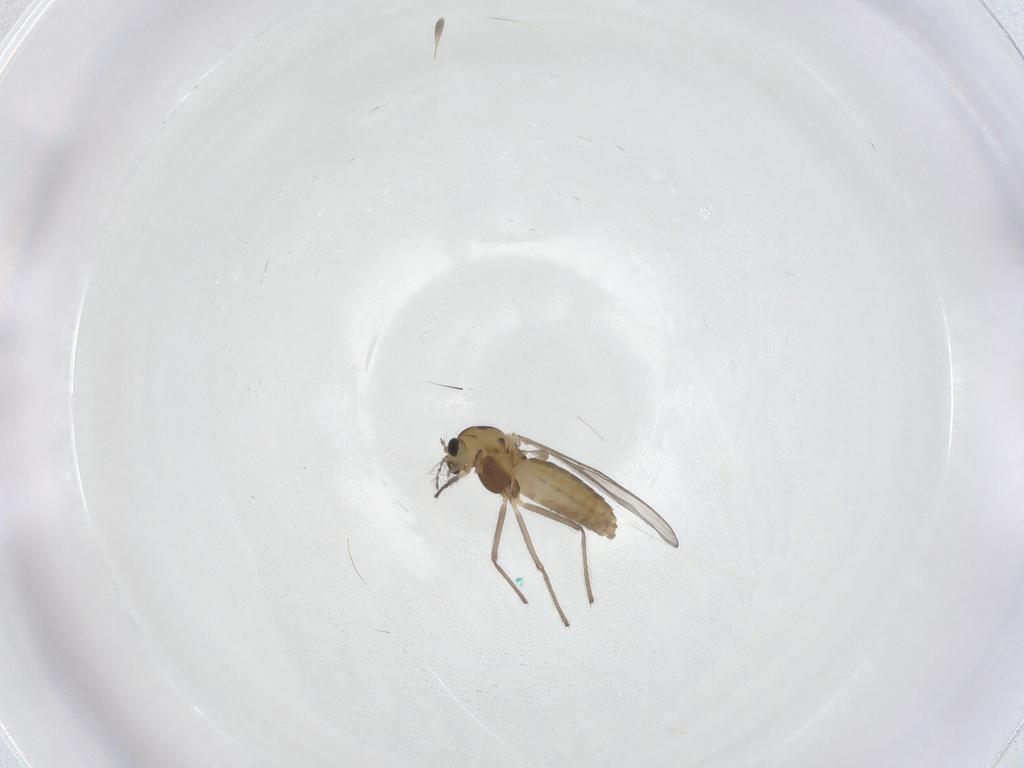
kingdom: Animalia
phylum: Arthropoda
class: Insecta
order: Diptera
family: Chironomidae
